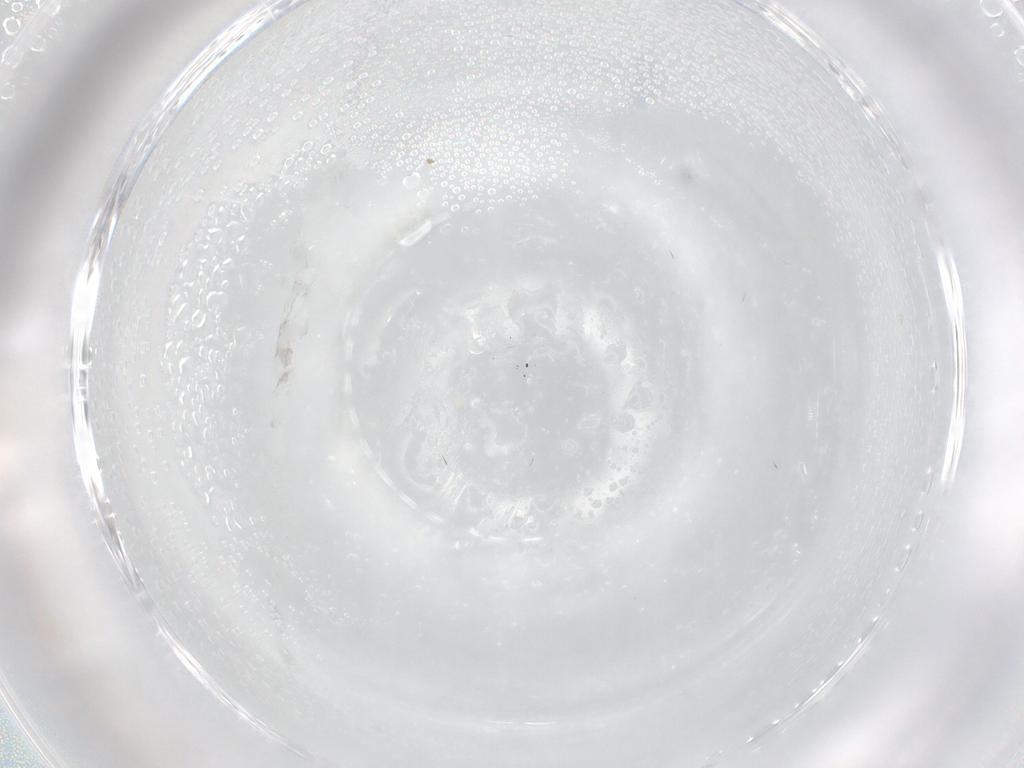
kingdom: Animalia
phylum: Arthropoda
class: Insecta
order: Coleoptera
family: Staphylinidae
